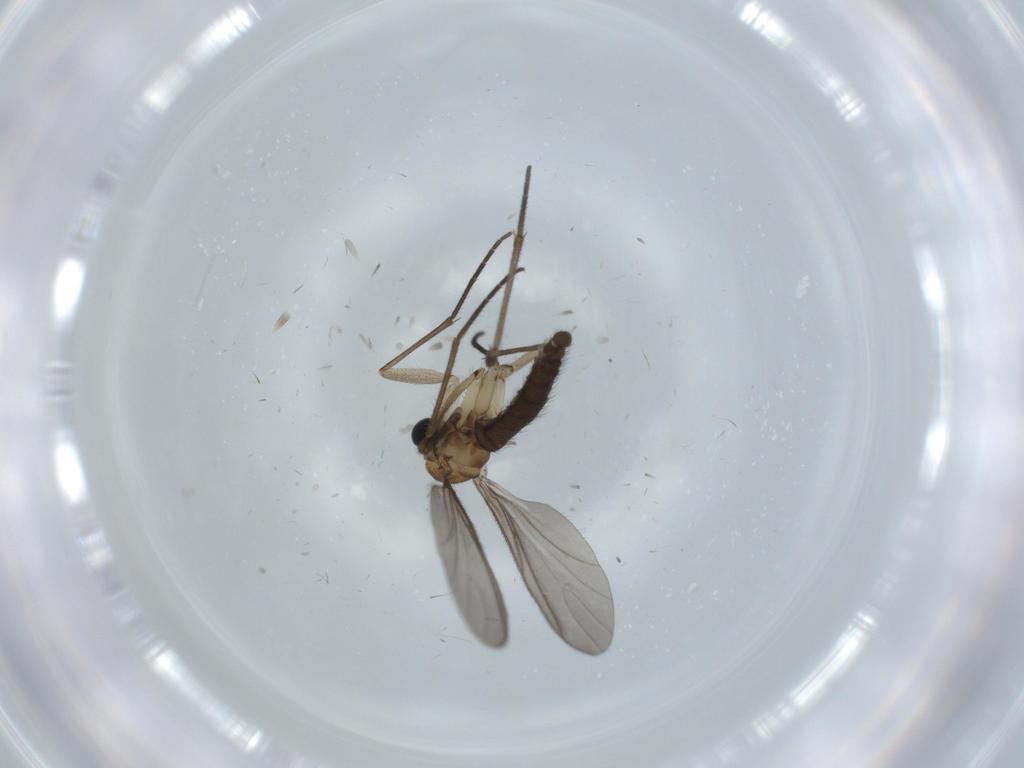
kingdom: Animalia
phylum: Arthropoda
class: Insecta
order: Diptera
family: Sciaridae
